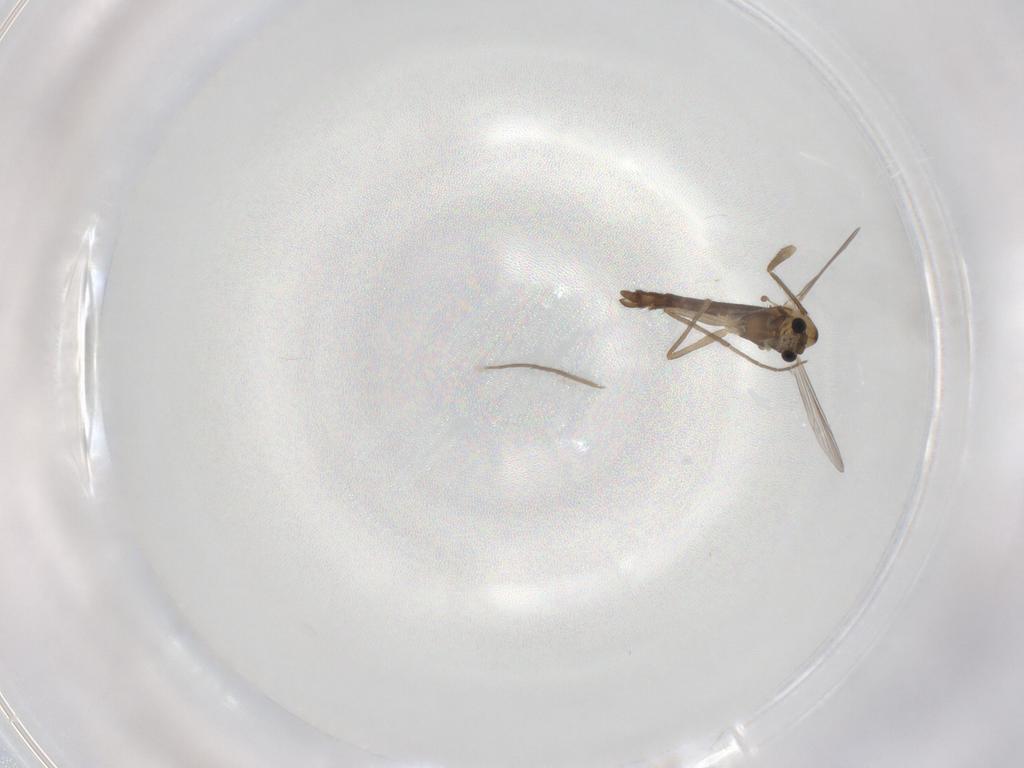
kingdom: Animalia
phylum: Arthropoda
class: Insecta
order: Diptera
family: Chironomidae
